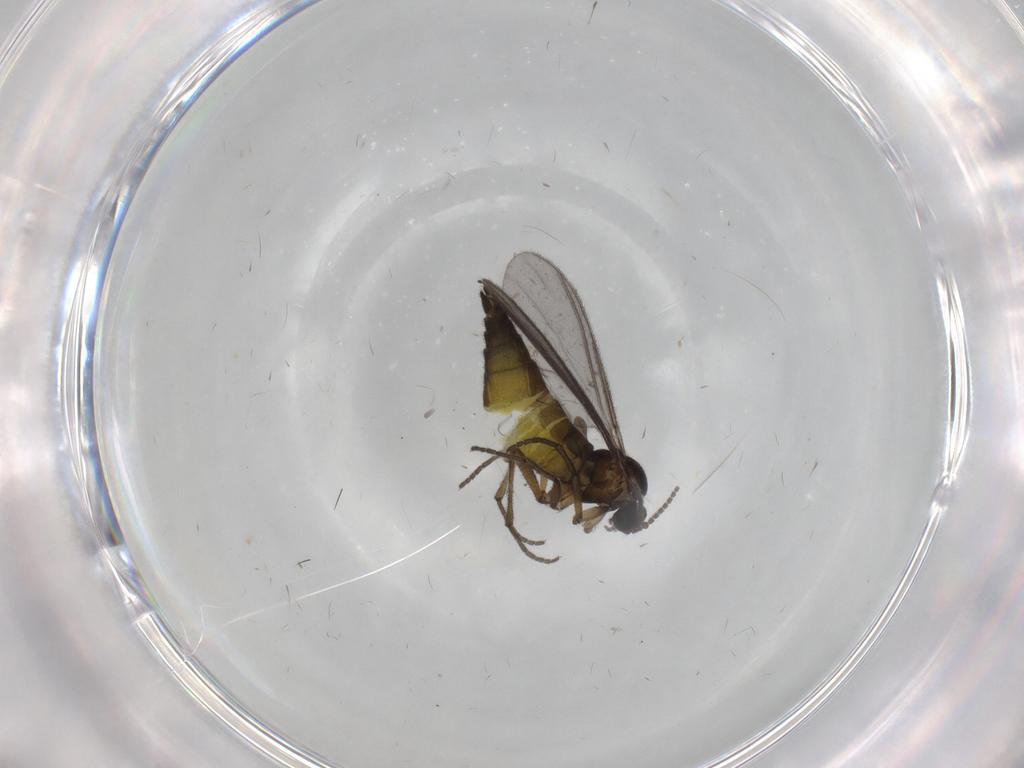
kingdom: Animalia
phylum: Arthropoda
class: Insecta
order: Diptera
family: Sciaridae
